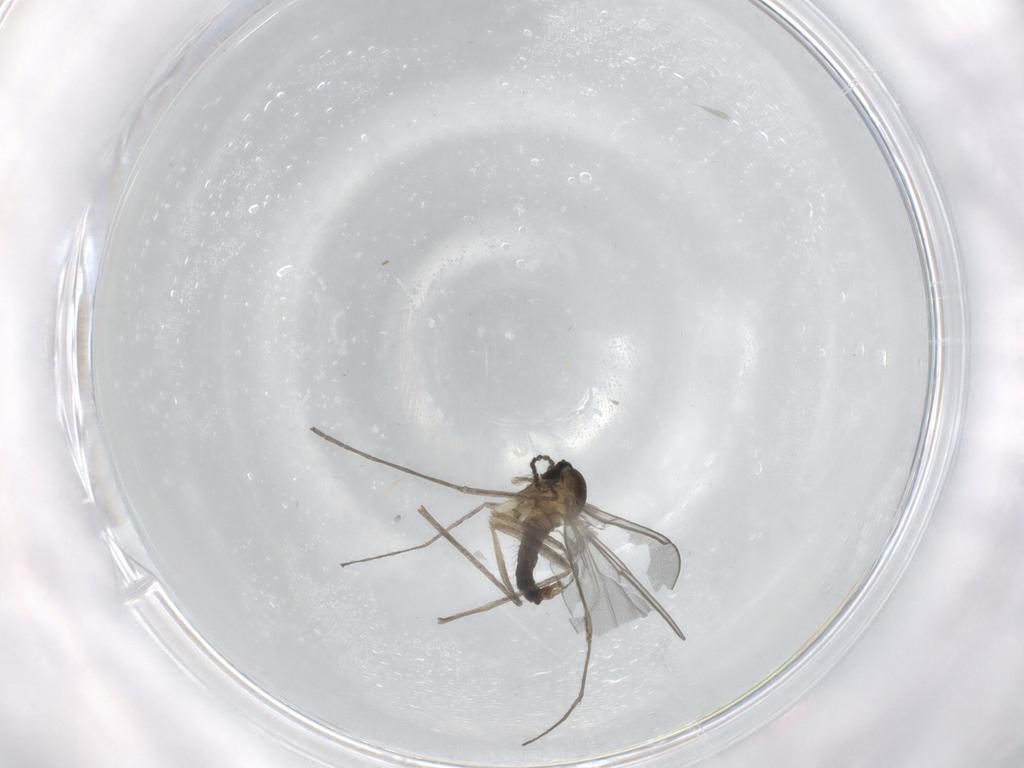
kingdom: Animalia
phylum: Arthropoda
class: Insecta
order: Diptera
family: Cecidomyiidae
